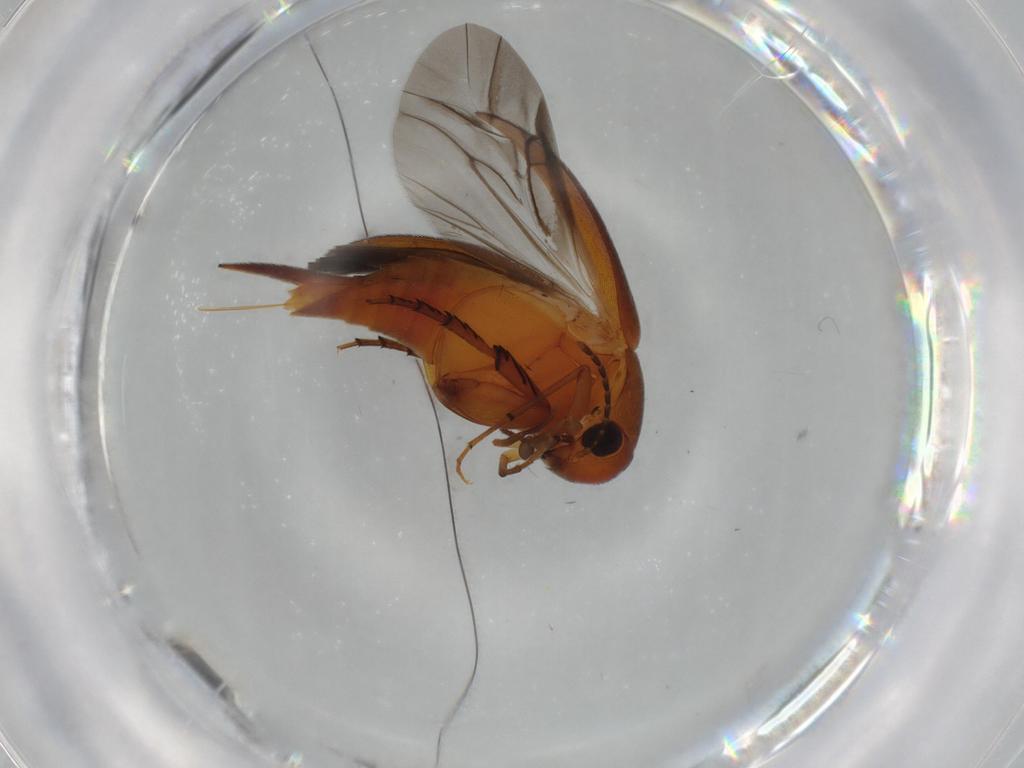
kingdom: Animalia
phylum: Arthropoda
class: Insecta
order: Coleoptera
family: Mordellidae
